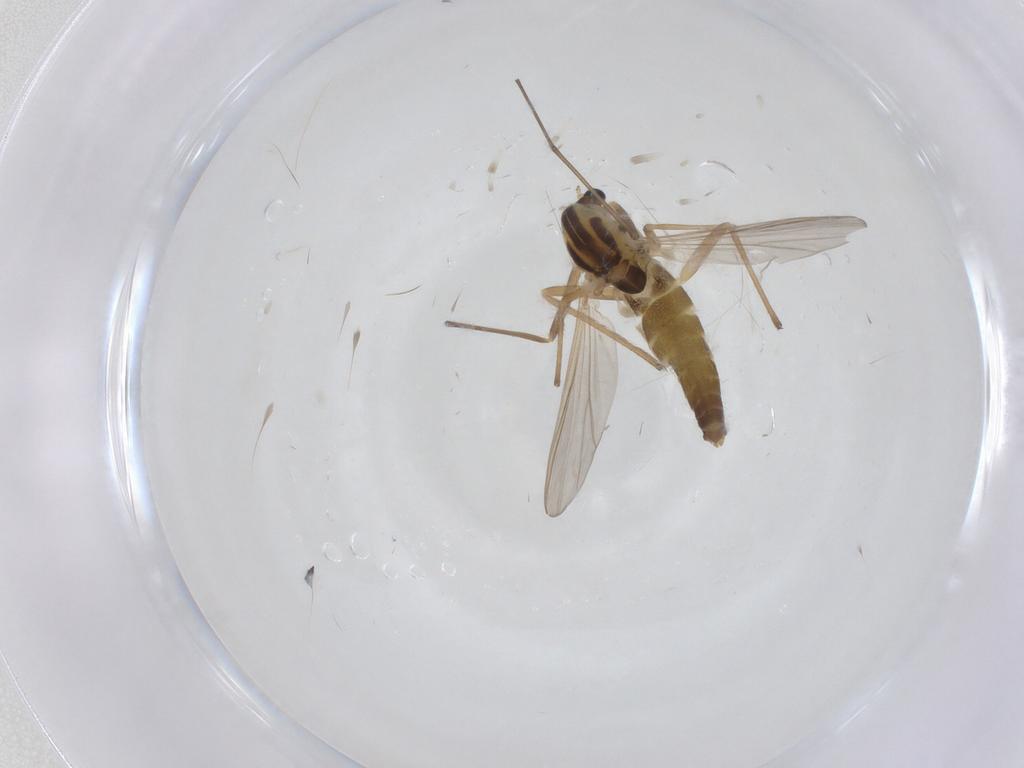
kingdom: Animalia
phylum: Arthropoda
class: Insecta
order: Diptera
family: Chironomidae
